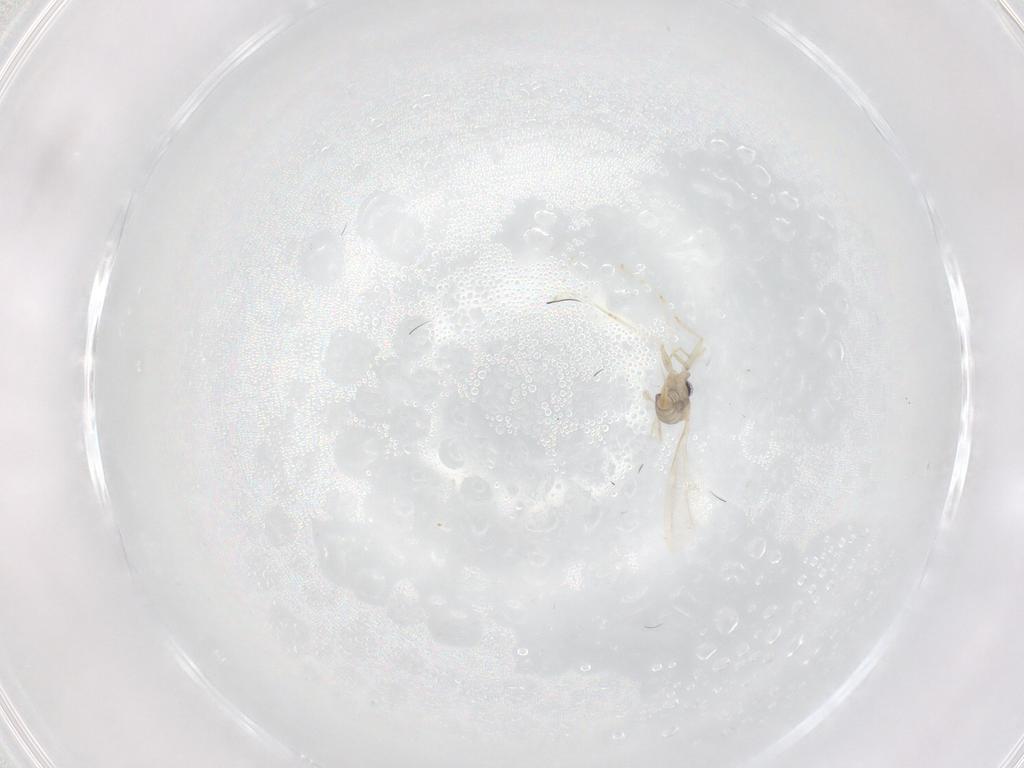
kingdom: Animalia
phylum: Arthropoda
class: Insecta
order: Diptera
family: Cecidomyiidae
